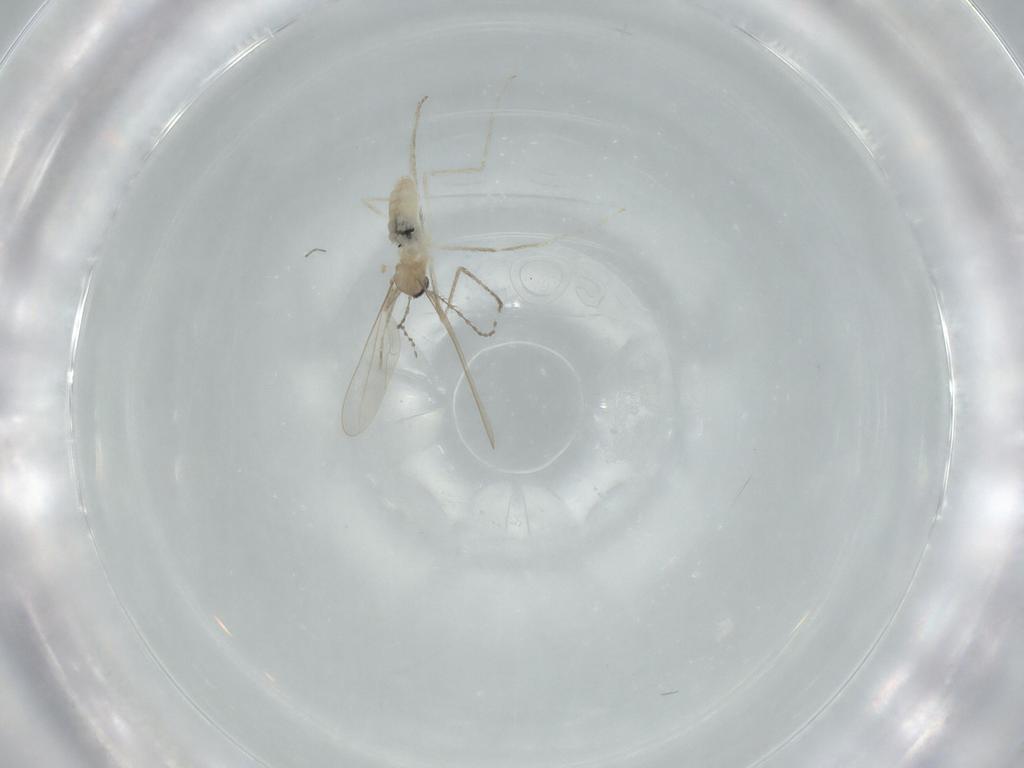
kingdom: Animalia
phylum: Arthropoda
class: Insecta
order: Diptera
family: Cecidomyiidae
